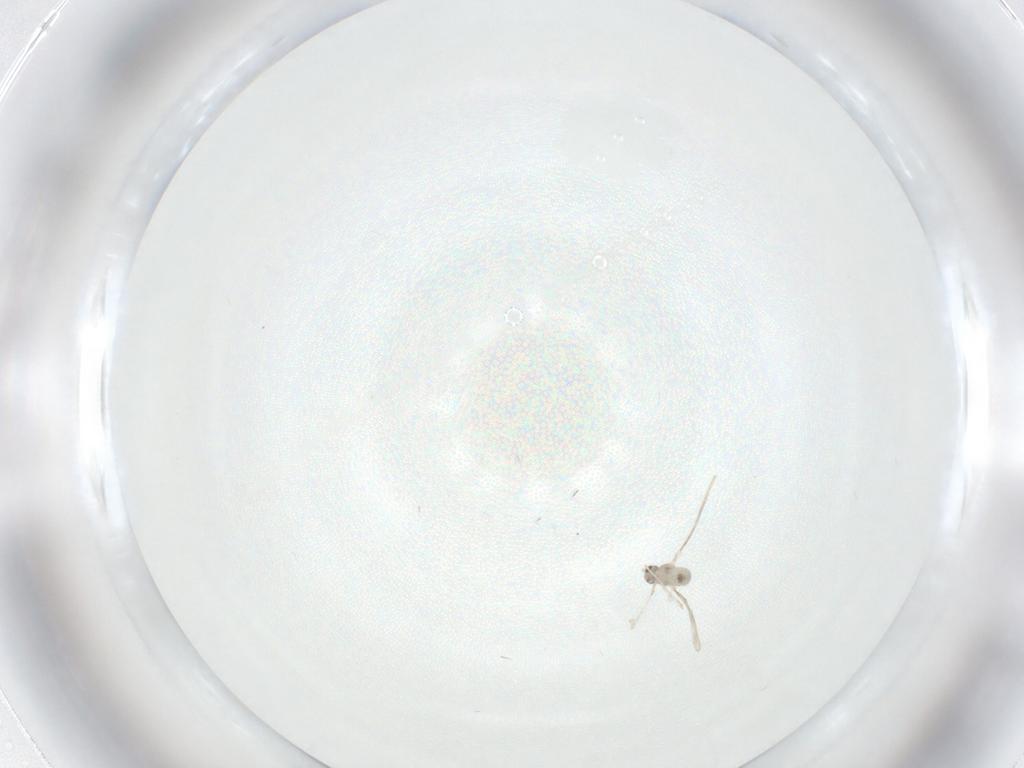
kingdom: Animalia
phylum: Arthropoda
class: Insecta
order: Diptera
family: Cecidomyiidae
